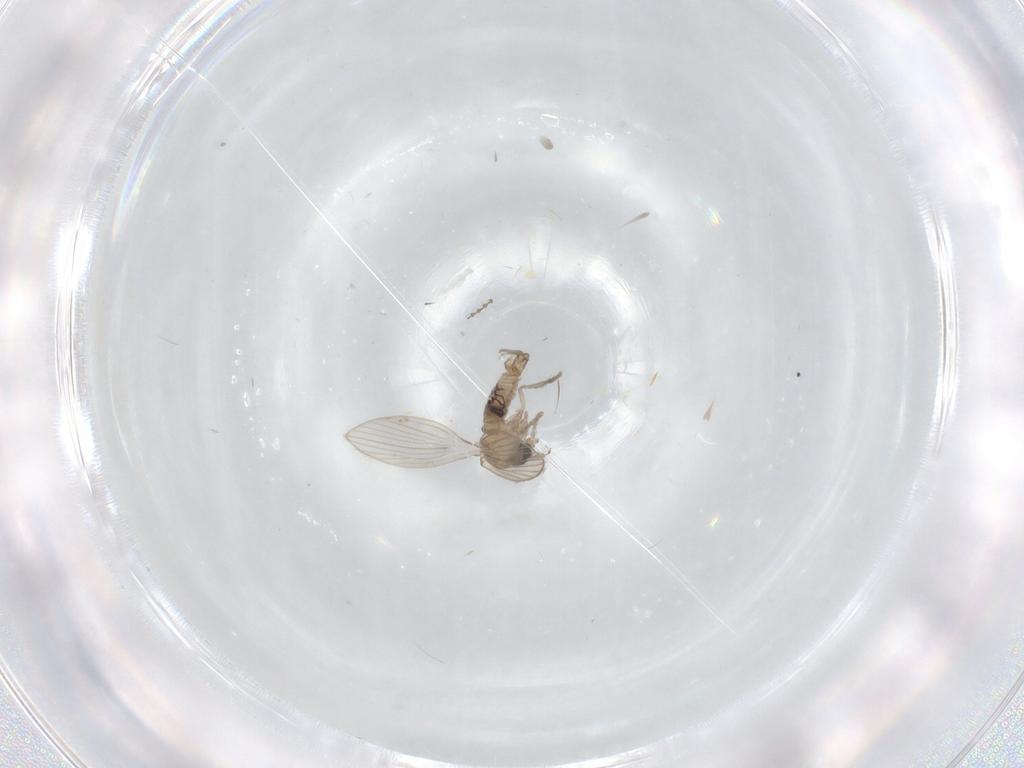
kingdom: Animalia
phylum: Arthropoda
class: Insecta
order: Diptera
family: Cecidomyiidae
